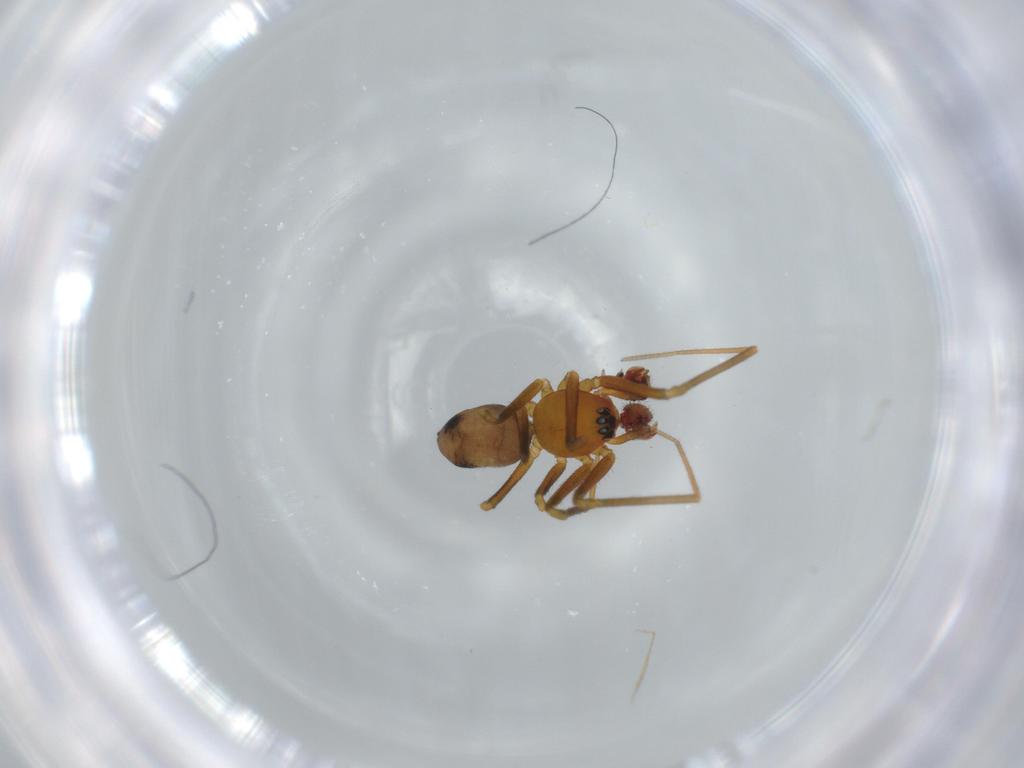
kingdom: Animalia
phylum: Arthropoda
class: Arachnida
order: Araneae
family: Linyphiidae
